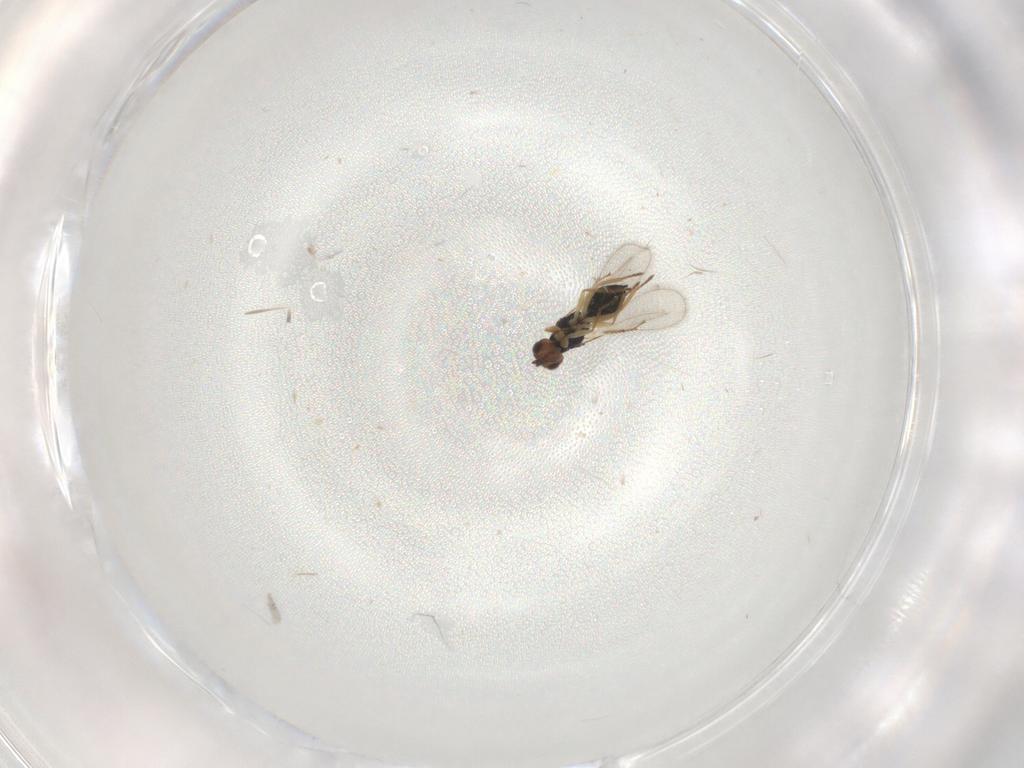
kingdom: Animalia
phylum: Arthropoda
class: Insecta
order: Hymenoptera
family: Eulophidae
